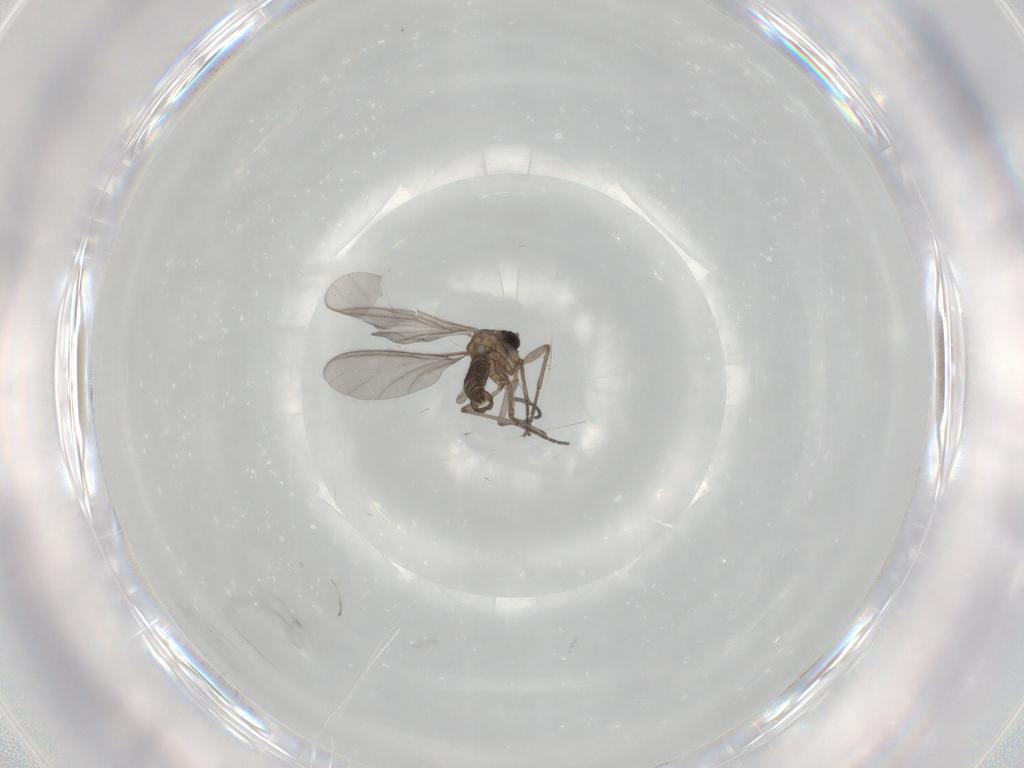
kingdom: Animalia
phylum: Arthropoda
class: Insecta
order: Diptera
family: Sciaridae
